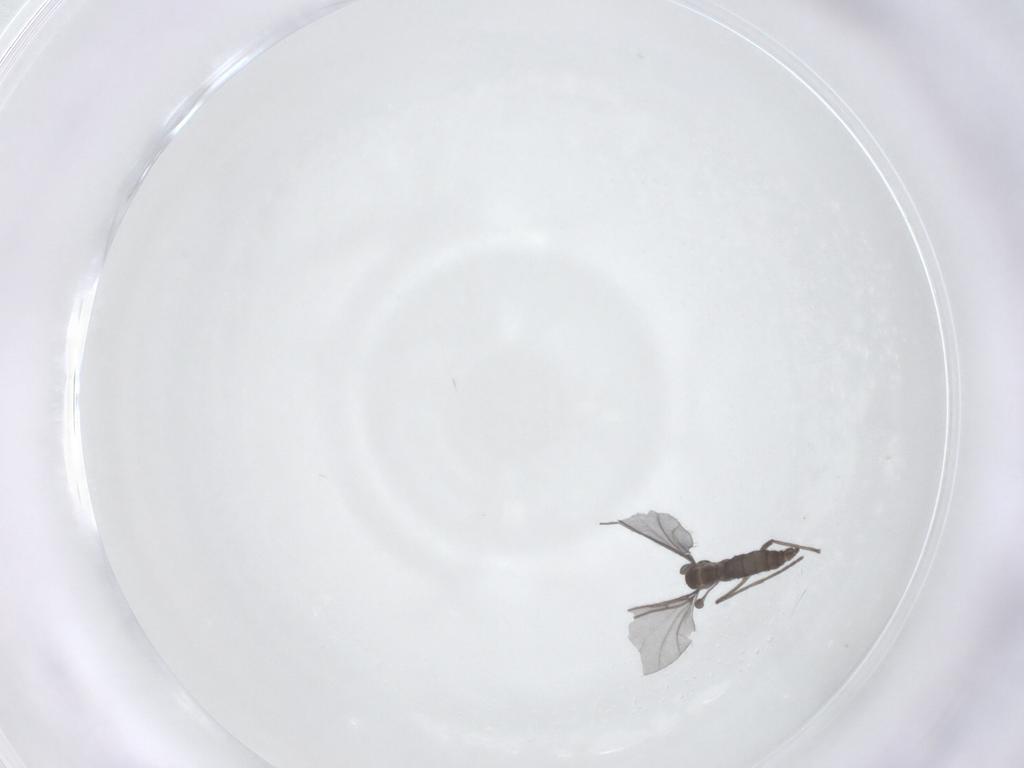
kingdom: Animalia
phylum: Arthropoda
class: Insecta
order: Diptera
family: Sciaridae
